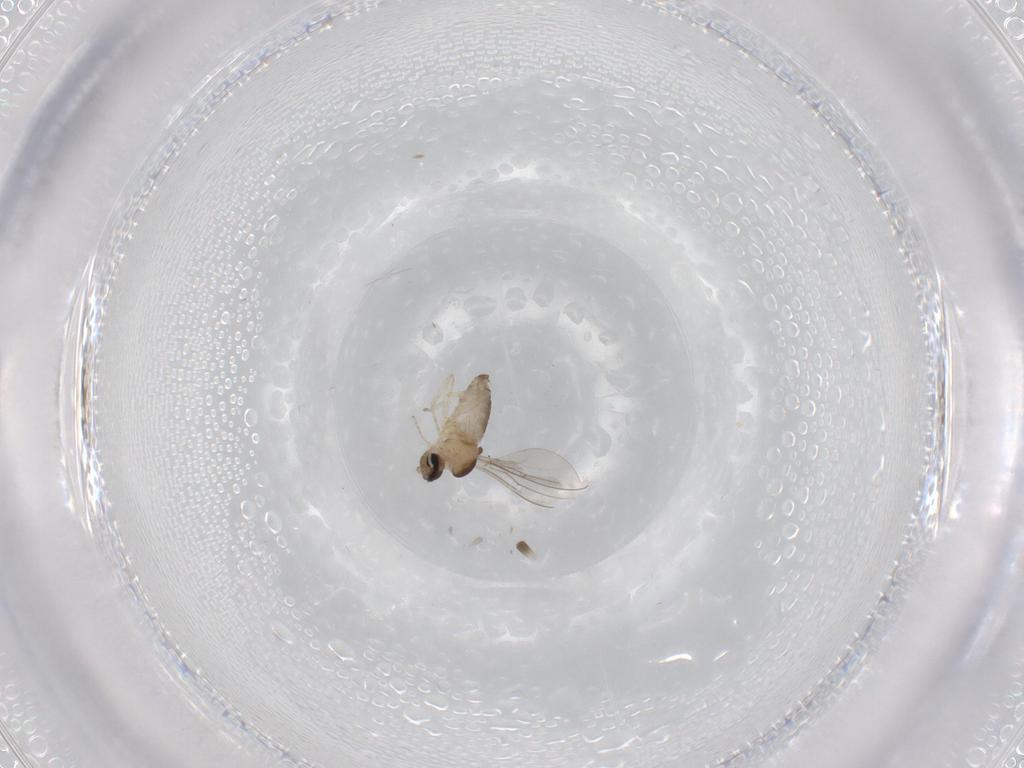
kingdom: Animalia
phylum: Arthropoda
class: Insecta
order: Diptera
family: Cecidomyiidae
